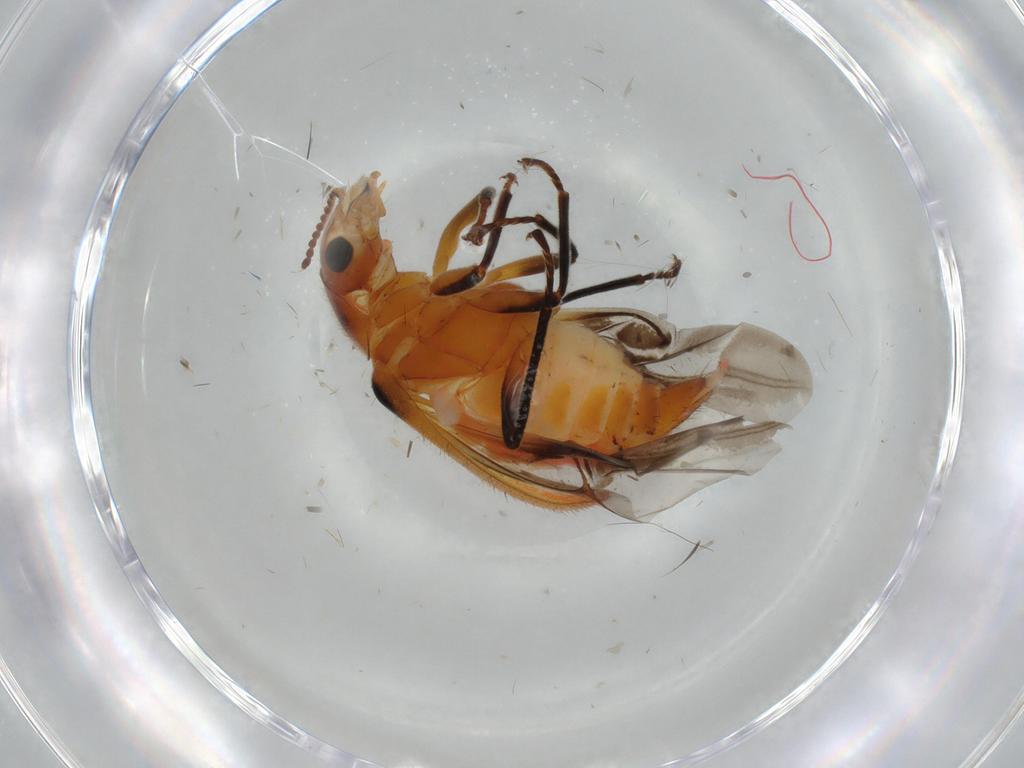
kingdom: Animalia
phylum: Arthropoda
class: Insecta
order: Coleoptera
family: Melyridae
